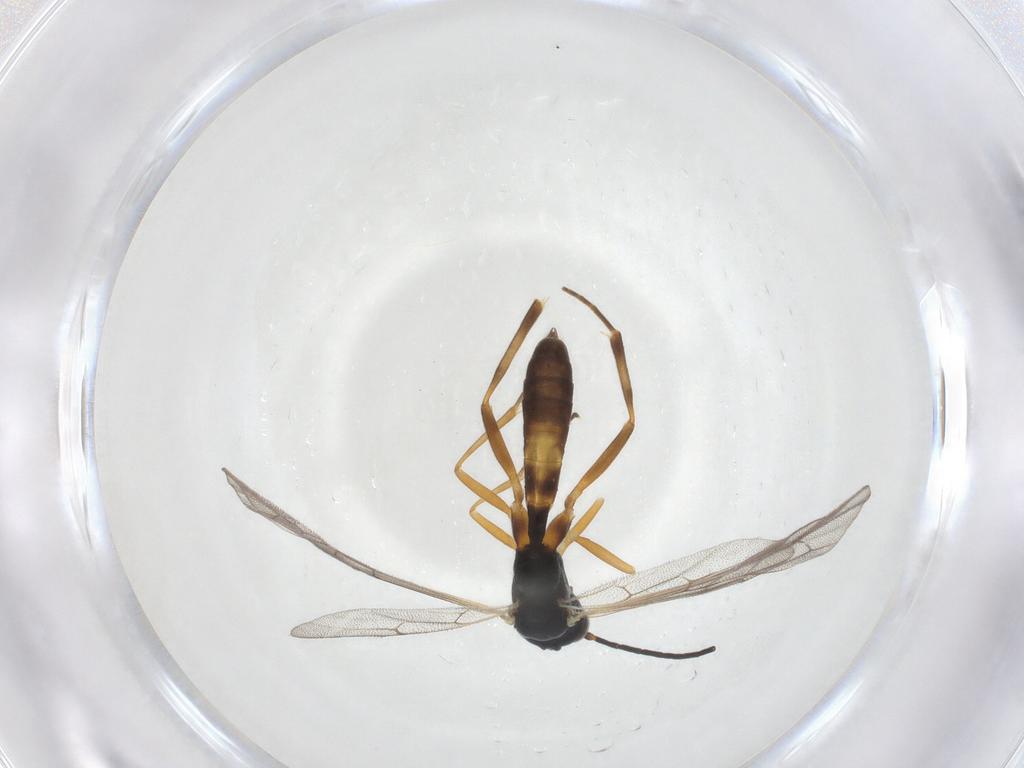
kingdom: Animalia
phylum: Arthropoda
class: Insecta
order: Hymenoptera
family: Ichneumonidae
